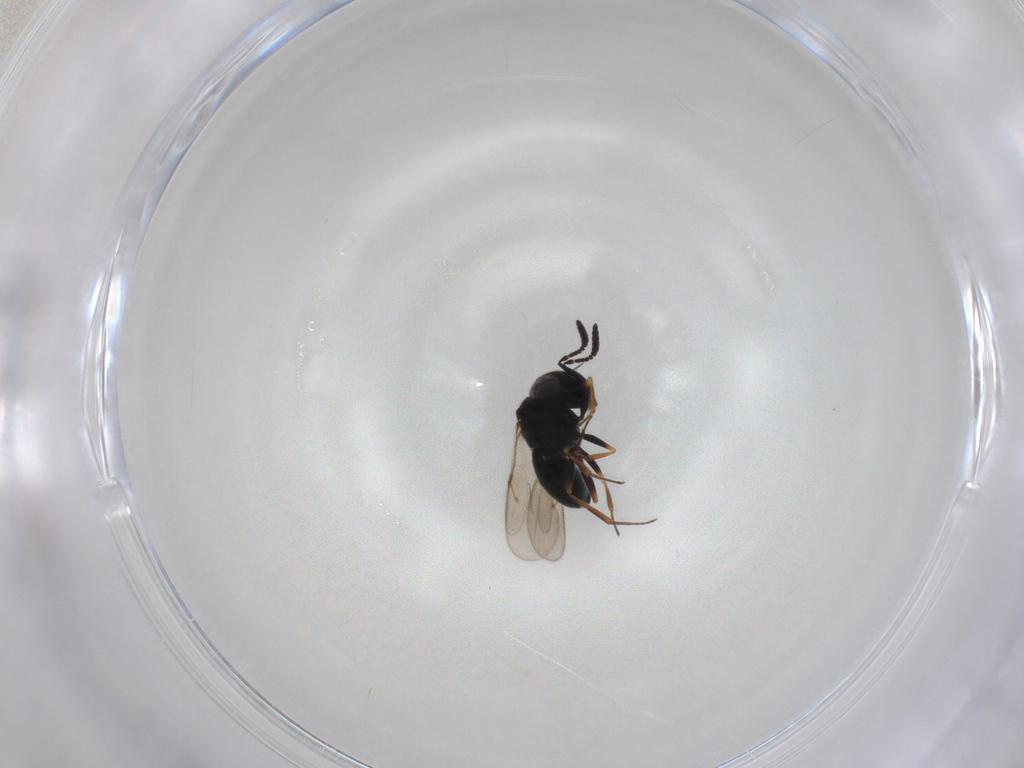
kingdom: Animalia
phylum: Arthropoda
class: Insecta
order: Hymenoptera
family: Scelionidae
